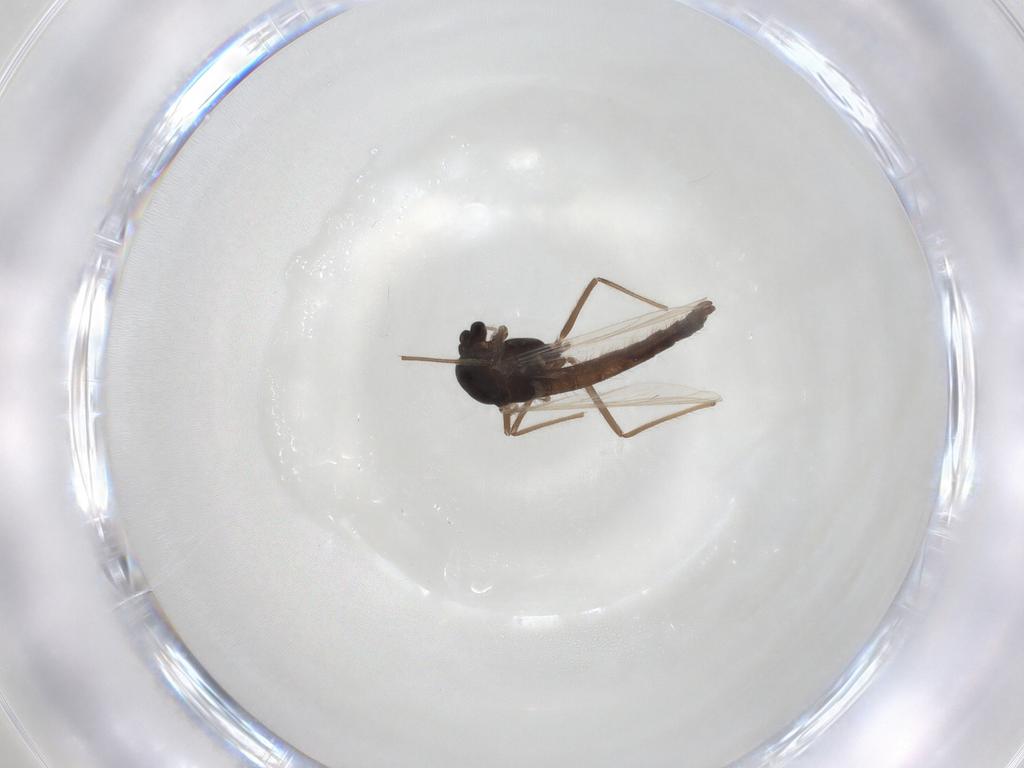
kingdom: Animalia
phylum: Arthropoda
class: Insecta
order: Diptera
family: Chironomidae
